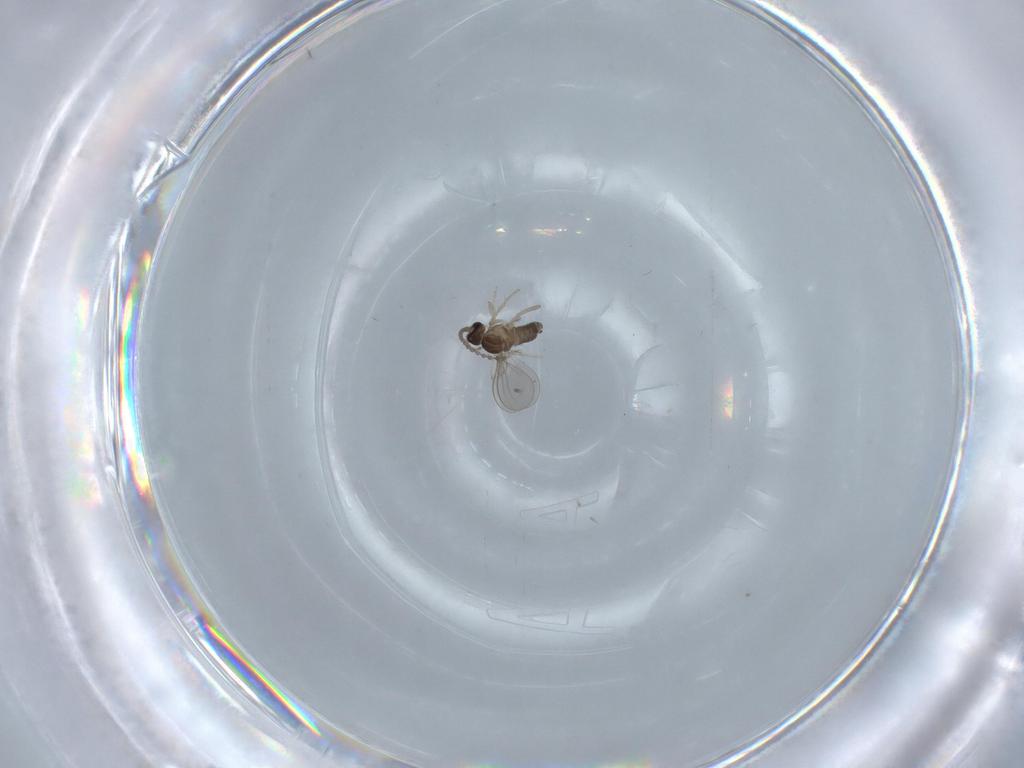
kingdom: Animalia
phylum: Arthropoda
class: Insecta
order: Diptera
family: Cecidomyiidae
